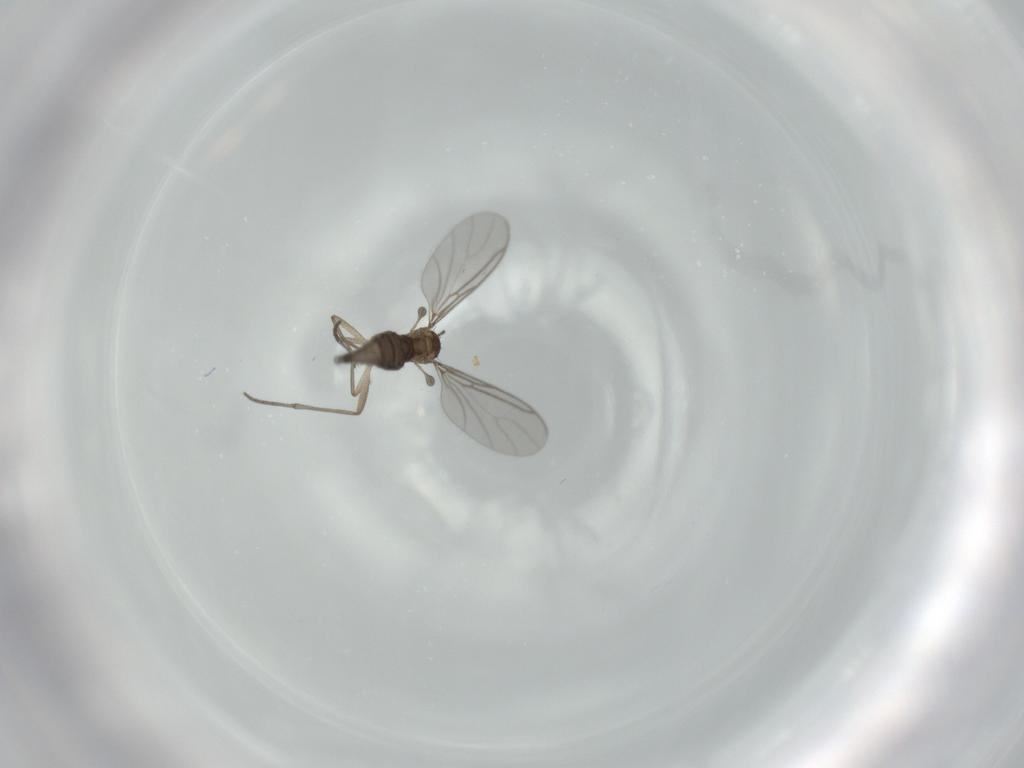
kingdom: Animalia
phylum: Arthropoda
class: Insecta
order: Diptera
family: Sciaridae
